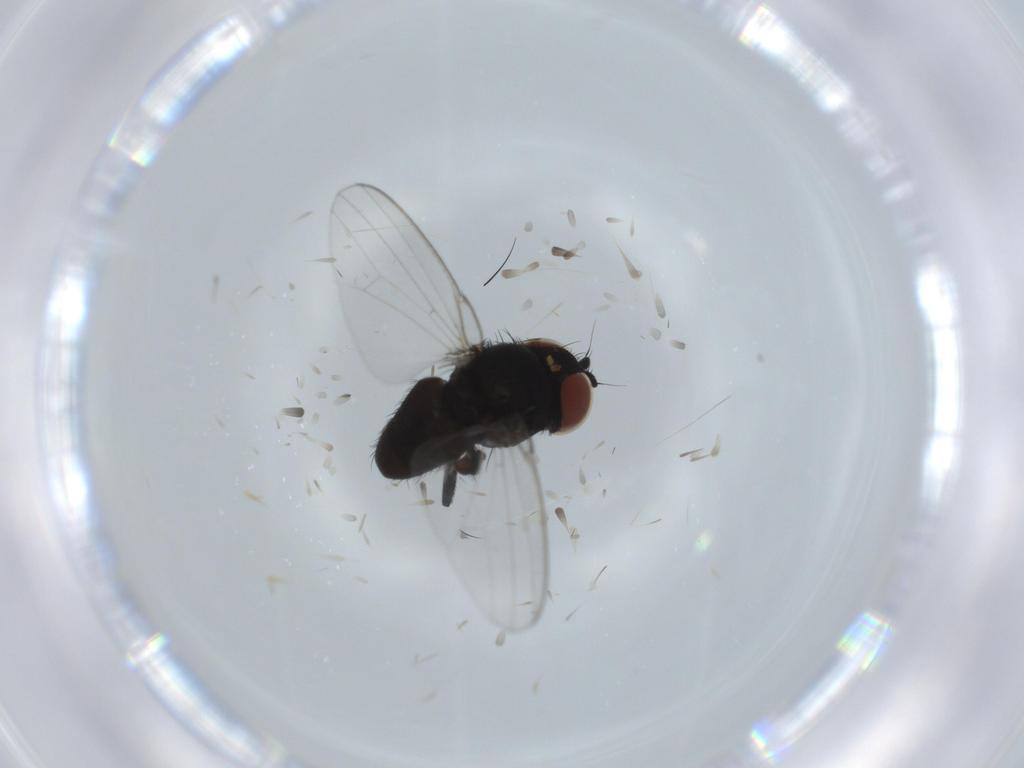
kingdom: Animalia
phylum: Arthropoda
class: Insecta
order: Diptera
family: Milichiidae
